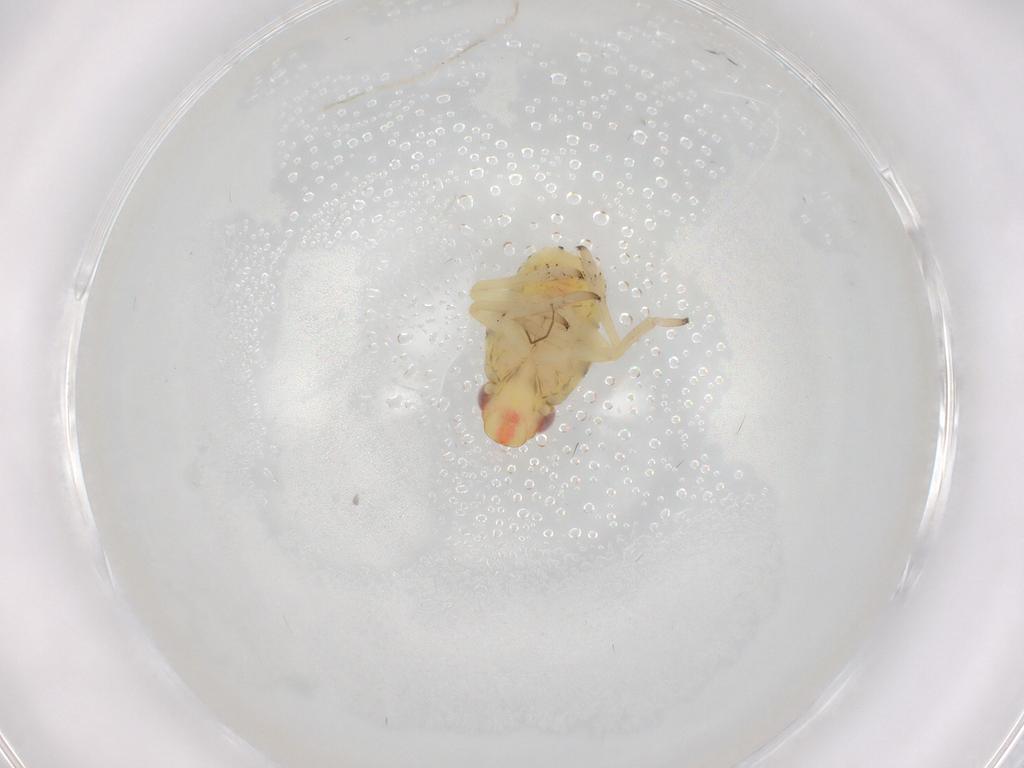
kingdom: Animalia
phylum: Arthropoda
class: Insecta
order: Hemiptera
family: Caliscelidae
